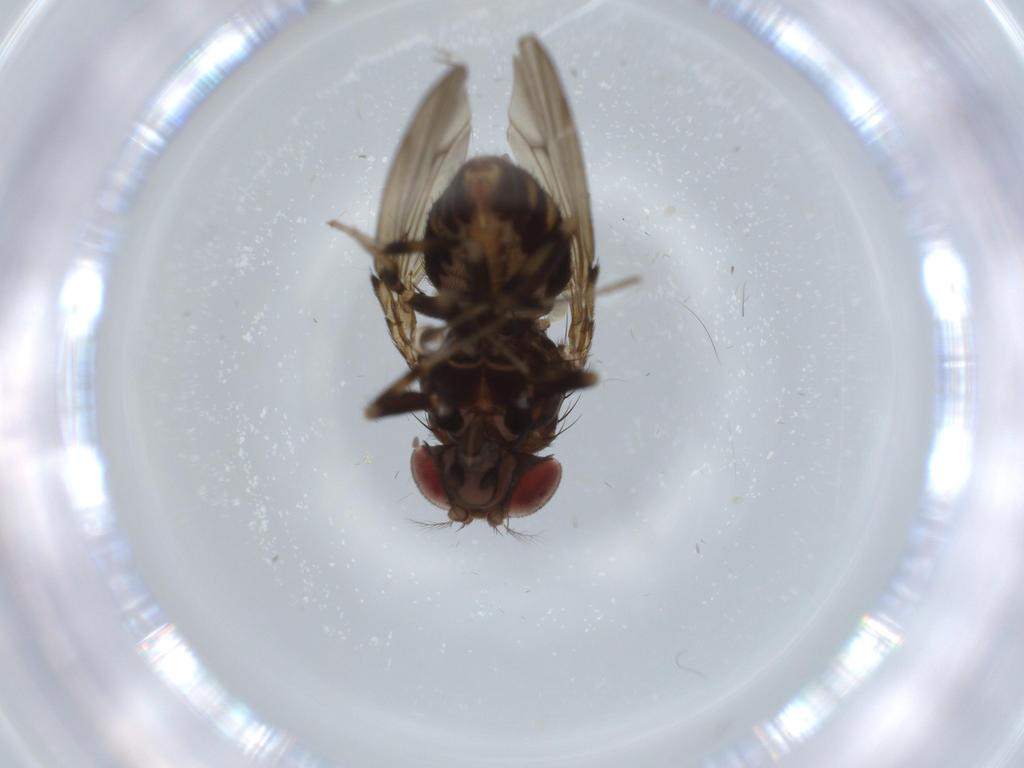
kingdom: Animalia
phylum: Arthropoda
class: Insecta
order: Diptera
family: Drosophilidae
